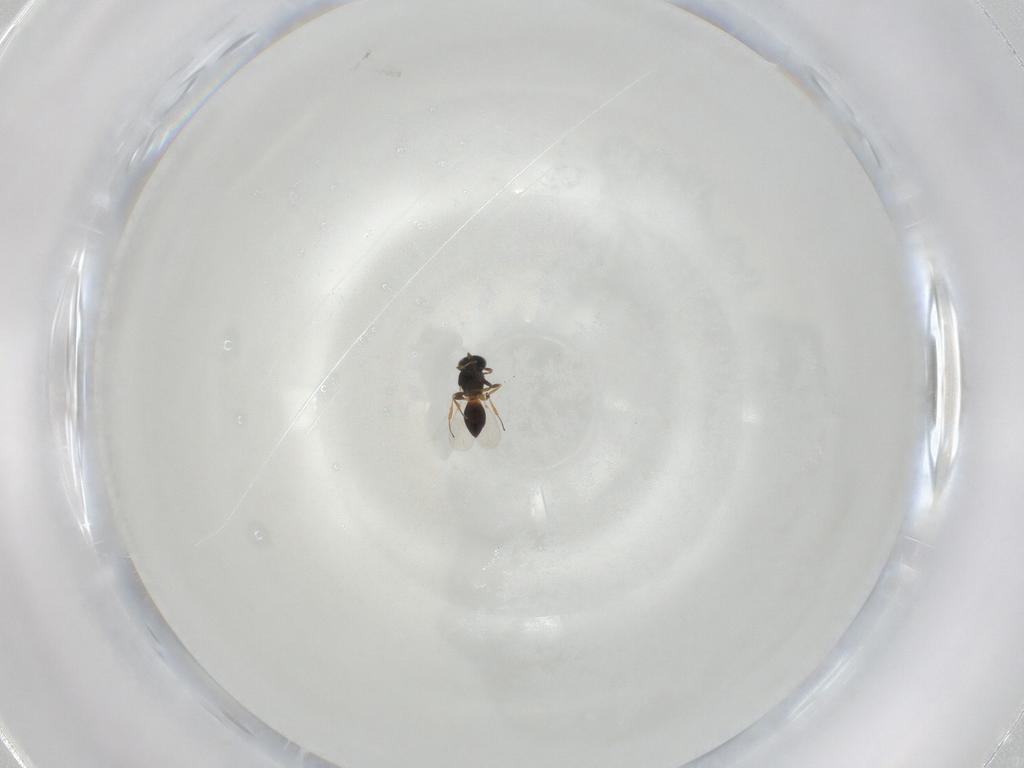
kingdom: Animalia
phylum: Arthropoda
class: Insecta
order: Hymenoptera
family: Platygastridae
